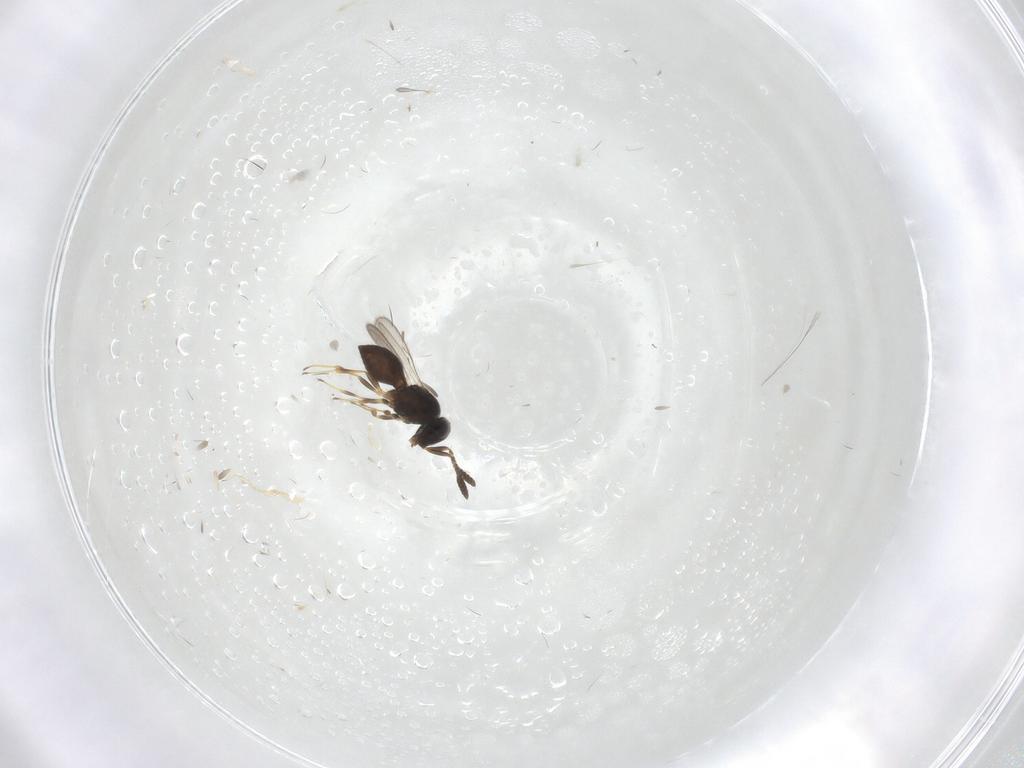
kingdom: Animalia
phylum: Arthropoda
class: Insecta
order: Hymenoptera
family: Scelionidae
